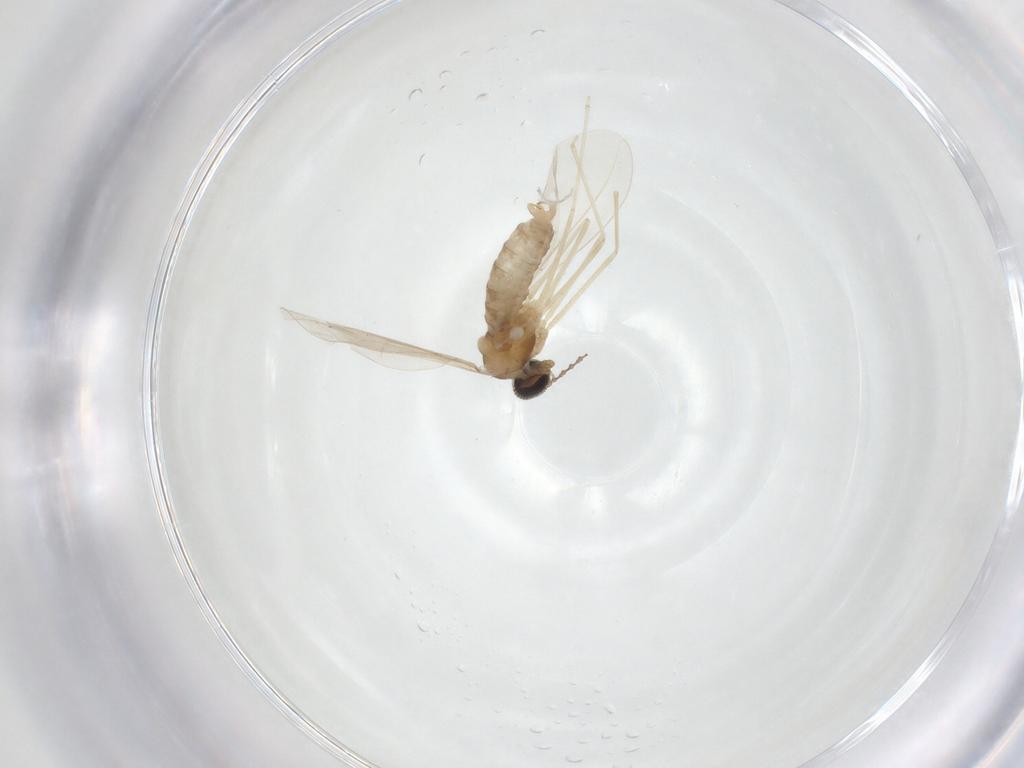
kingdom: Animalia
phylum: Arthropoda
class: Insecta
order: Diptera
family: Cecidomyiidae
